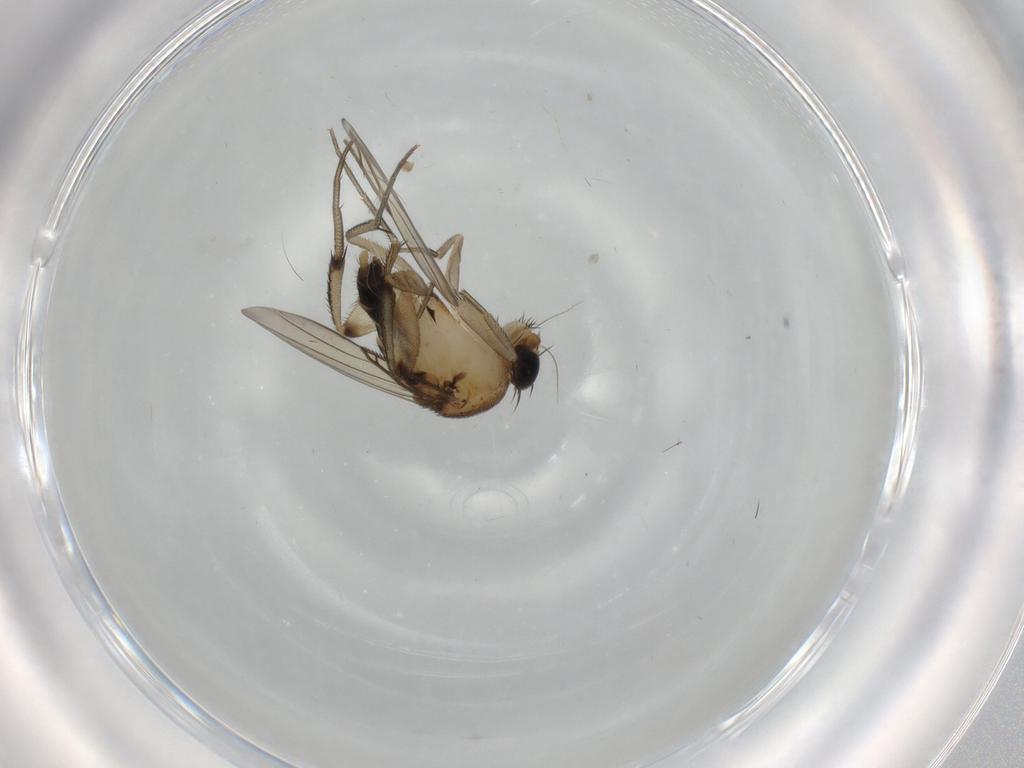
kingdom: Animalia
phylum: Arthropoda
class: Insecta
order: Diptera
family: Phoridae
